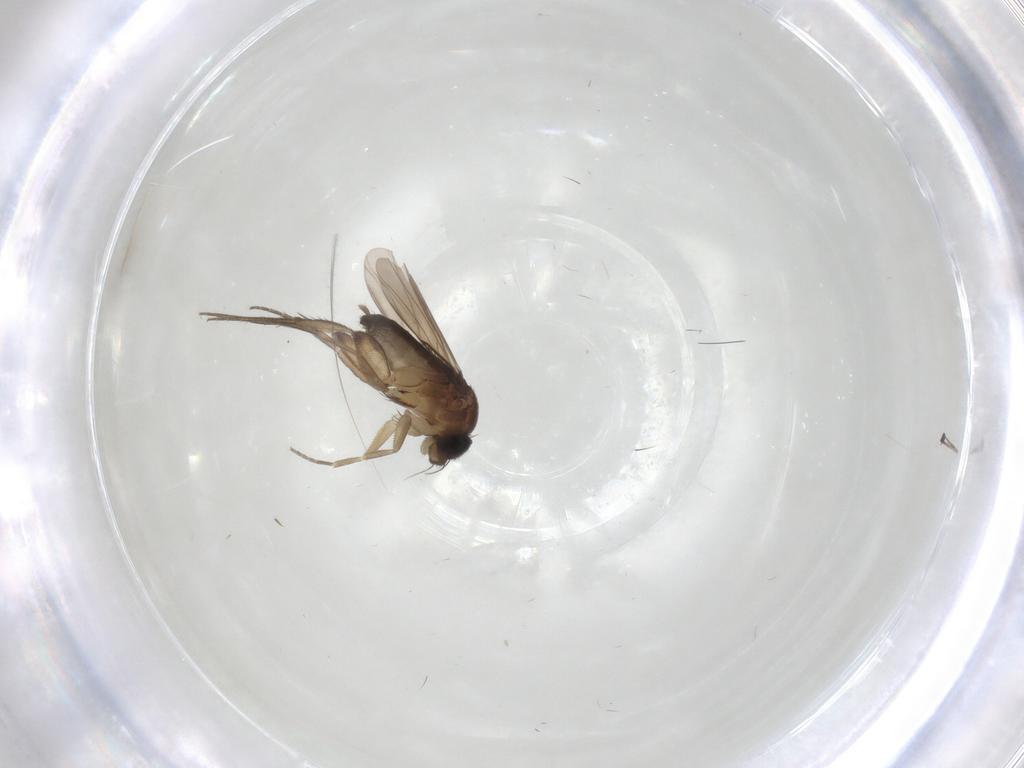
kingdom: Animalia
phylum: Arthropoda
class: Insecta
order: Diptera
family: Phoridae
